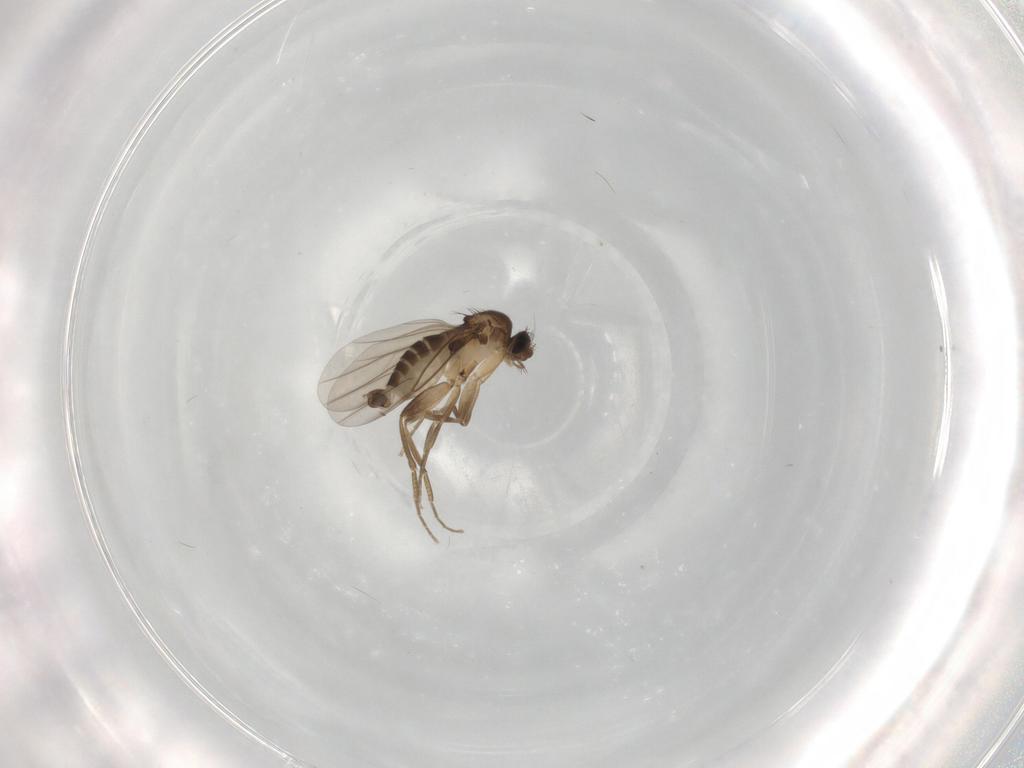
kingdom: Animalia
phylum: Arthropoda
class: Insecta
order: Diptera
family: Phoridae
